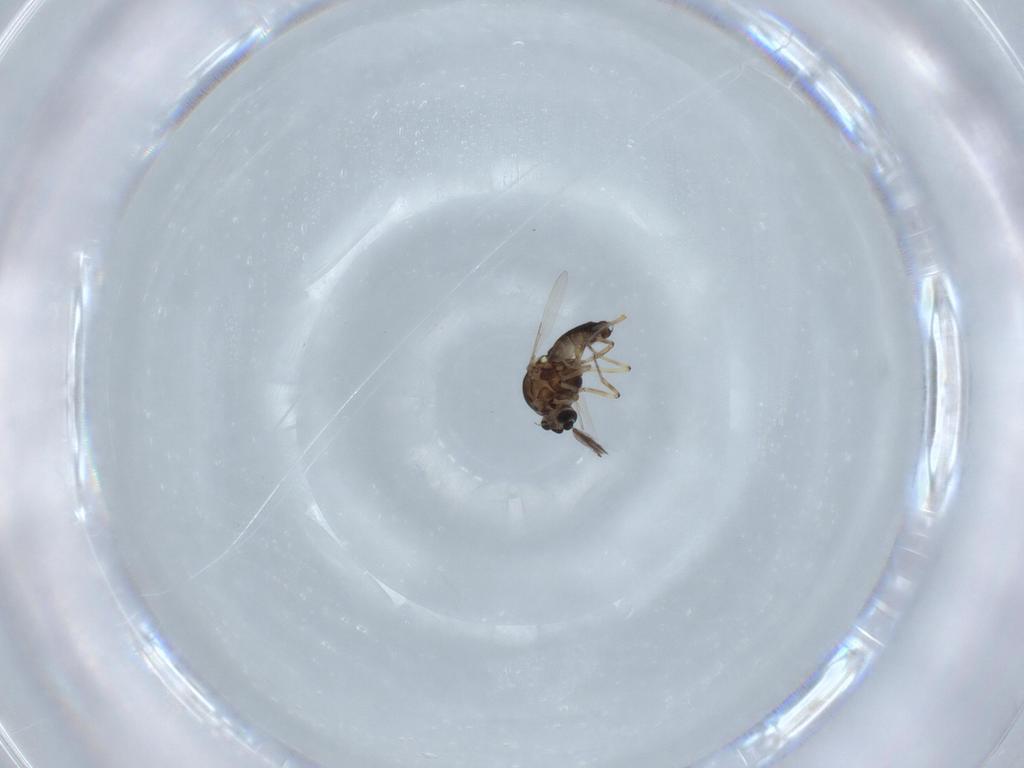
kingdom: Animalia
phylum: Arthropoda
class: Insecta
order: Diptera
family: Ceratopogonidae
